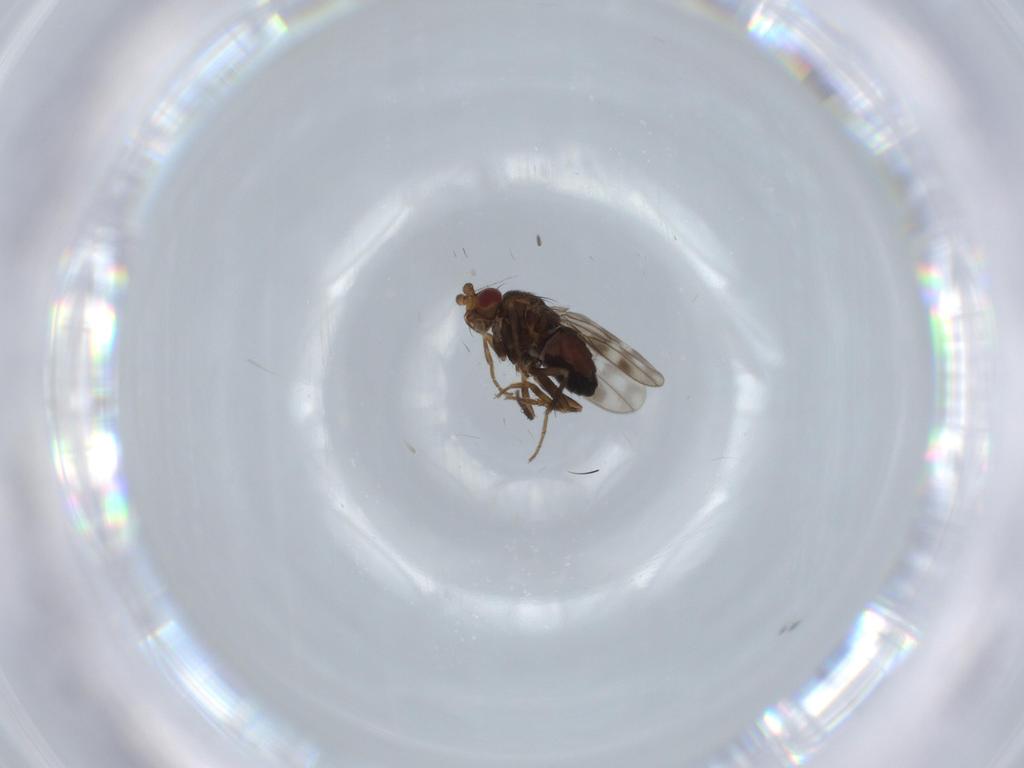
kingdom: Animalia
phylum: Arthropoda
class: Insecta
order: Diptera
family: Sphaeroceridae
